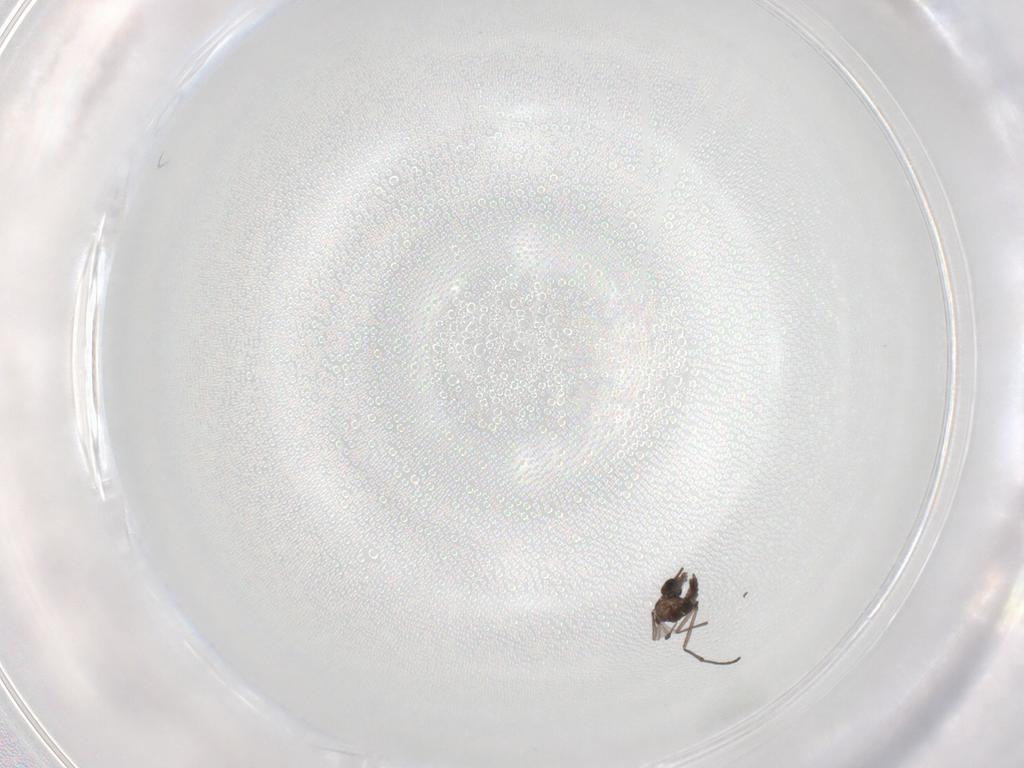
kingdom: Animalia
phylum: Arthropoda
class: Insecta
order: Diptera
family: Sciaridae
